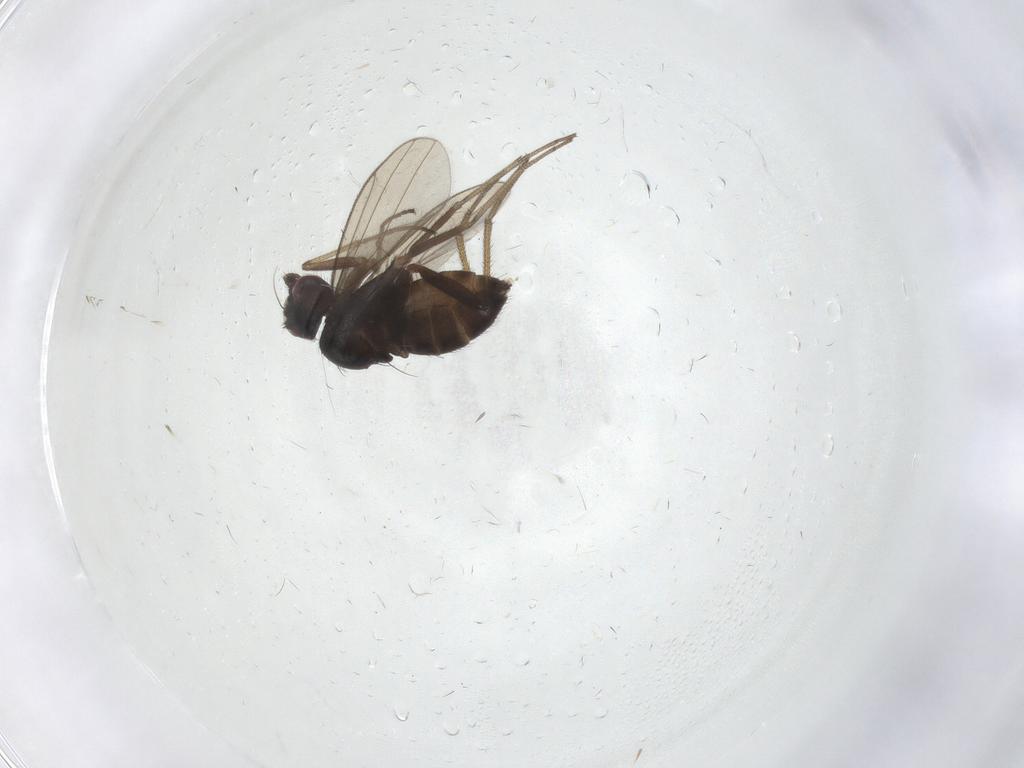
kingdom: Animalia
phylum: Arthropoda
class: Insecta
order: Diptera
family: Dolichopodidae
